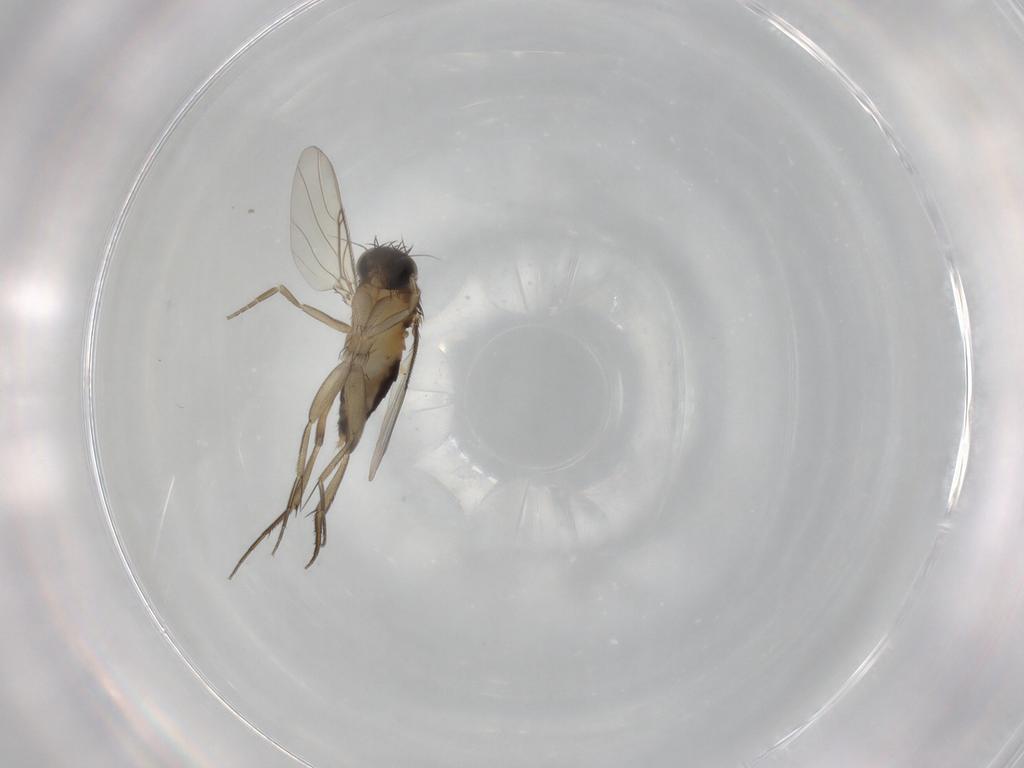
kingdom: Animalia
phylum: Arthropoda
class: Insecta
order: Diptera
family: Phoridae
